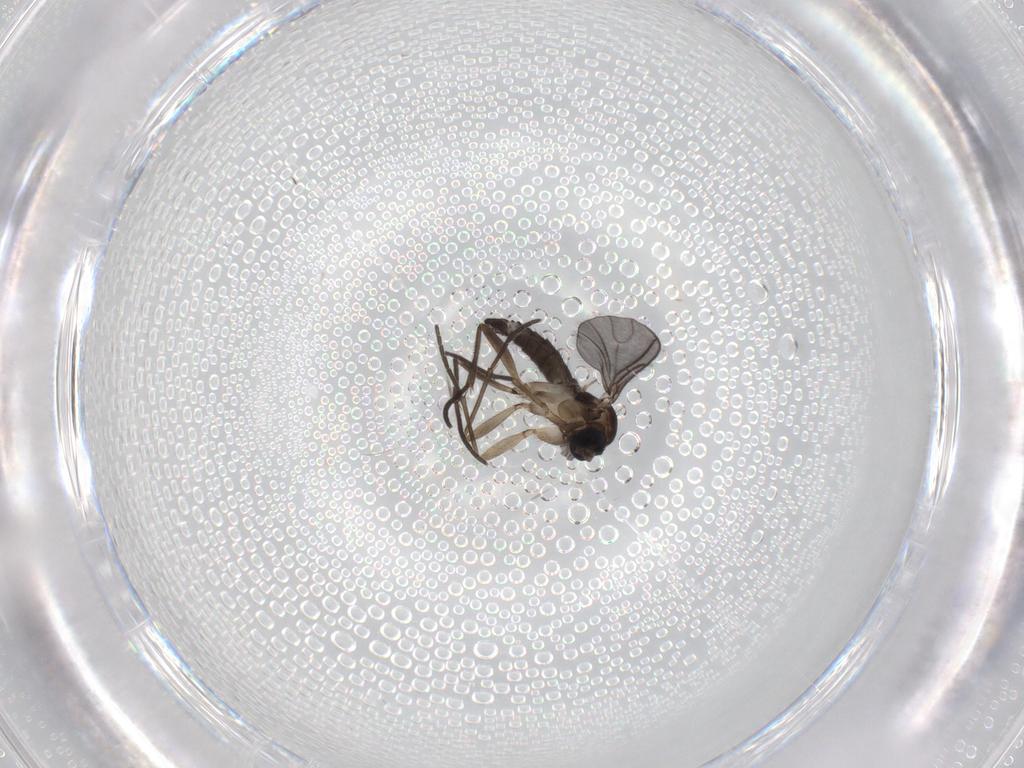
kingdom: Animalia
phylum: Arthropoda
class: Insecta
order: Diptera
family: Sciaridae
